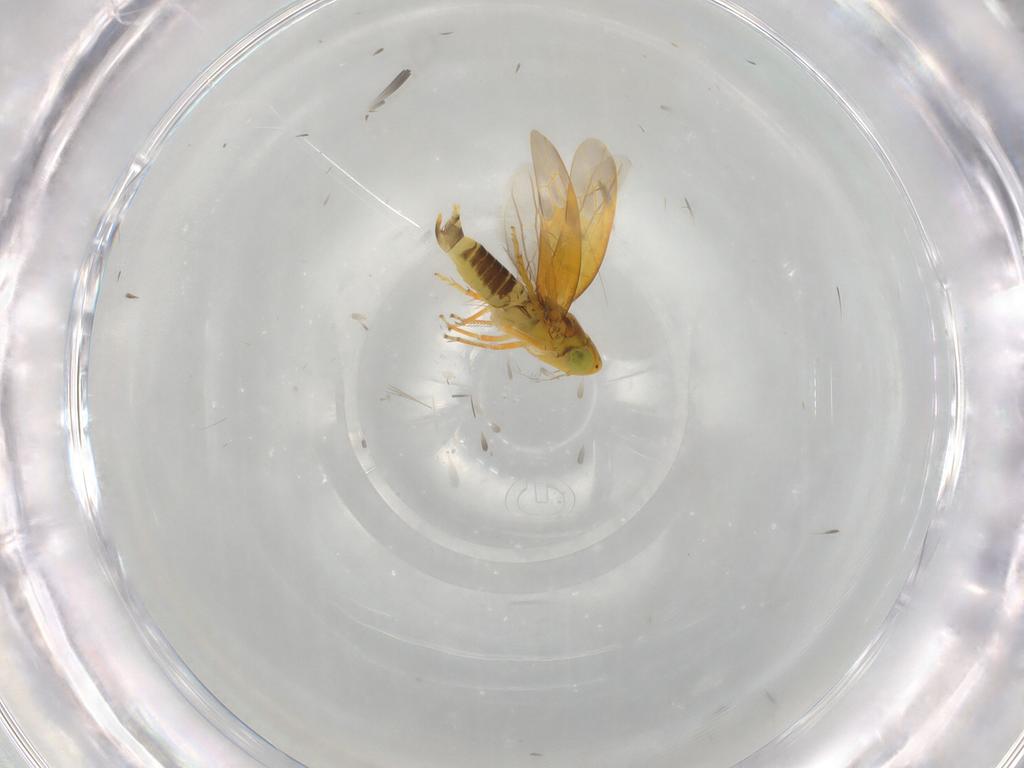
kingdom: Animalia
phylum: Arthropoda
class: Insecta
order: Hemiptera
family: Cicadellidae
